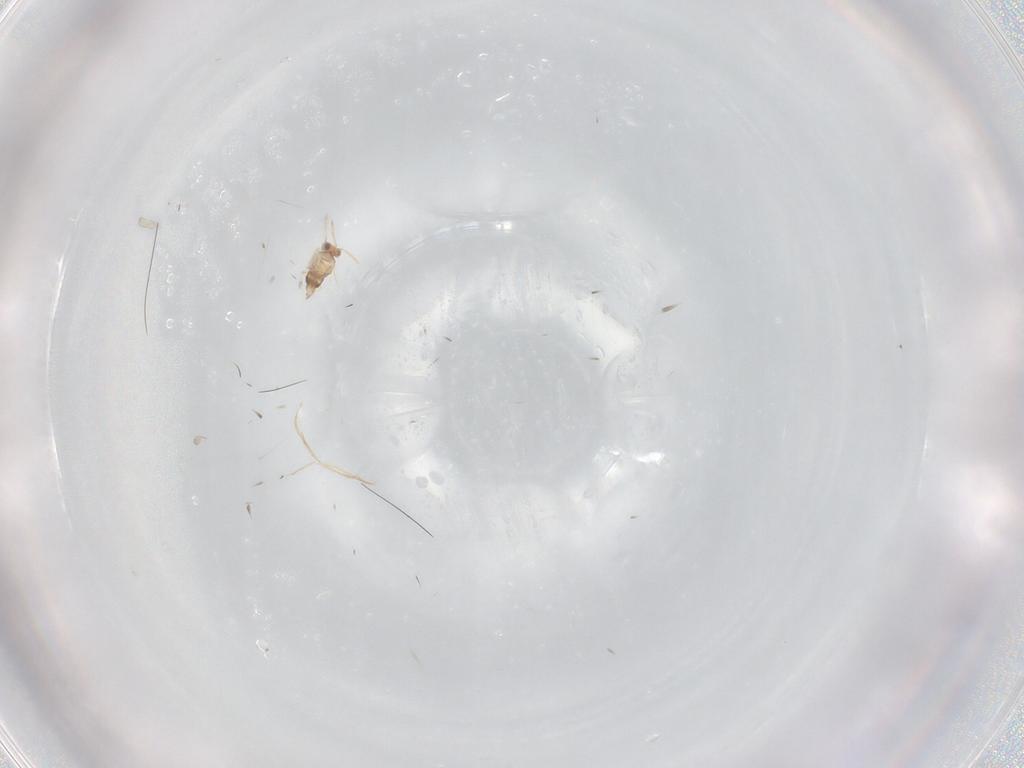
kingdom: Animalia
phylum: Arthropoda
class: Insecta
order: Hymenoptera
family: Aphelinidae
